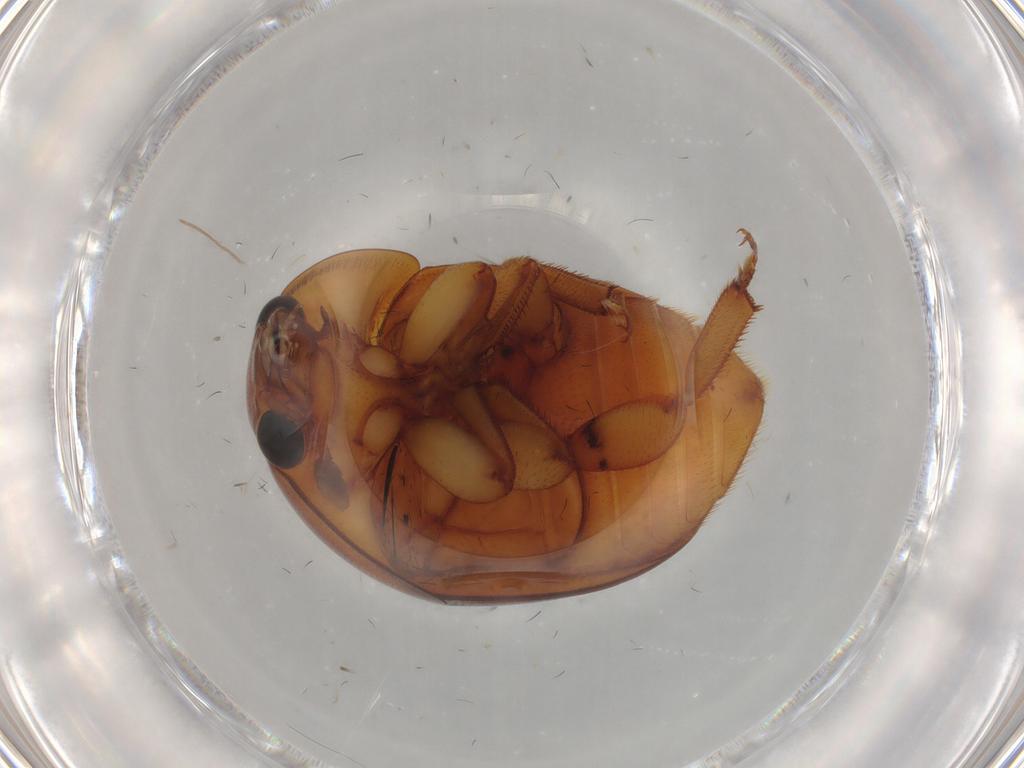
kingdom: Animalia
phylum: Arthropoda
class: Insecta
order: Coleoptera
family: Nitidulidae
